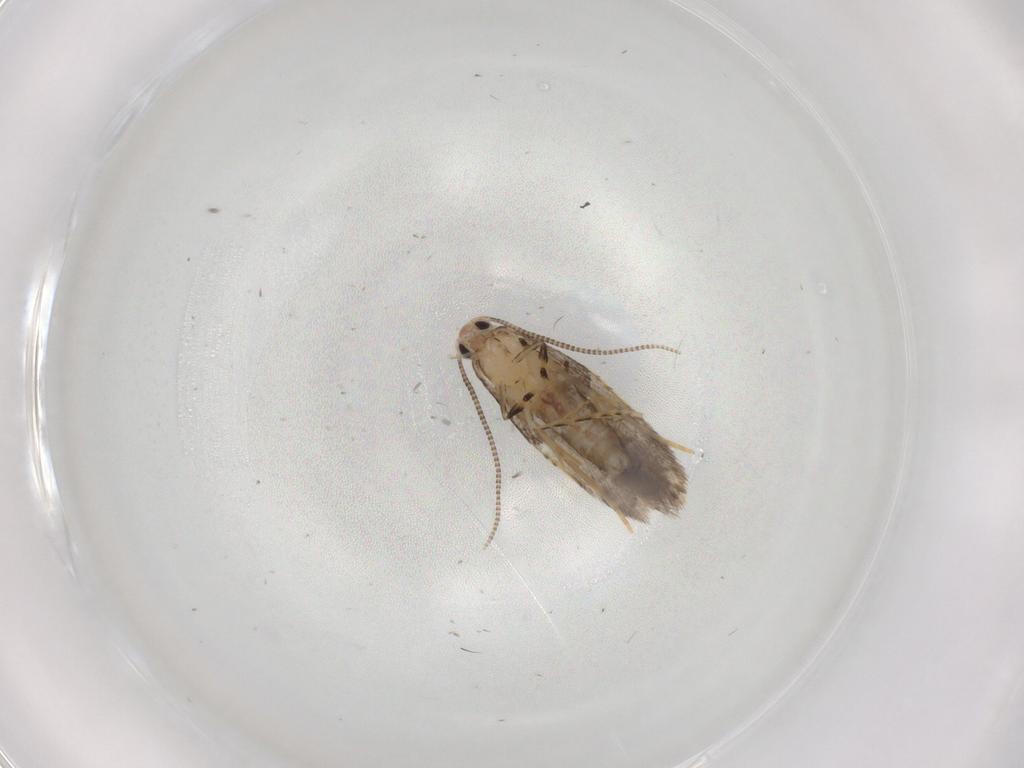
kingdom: Animalia
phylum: Arthropoda
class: Insecta
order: Lepidoptera
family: Tineidae
